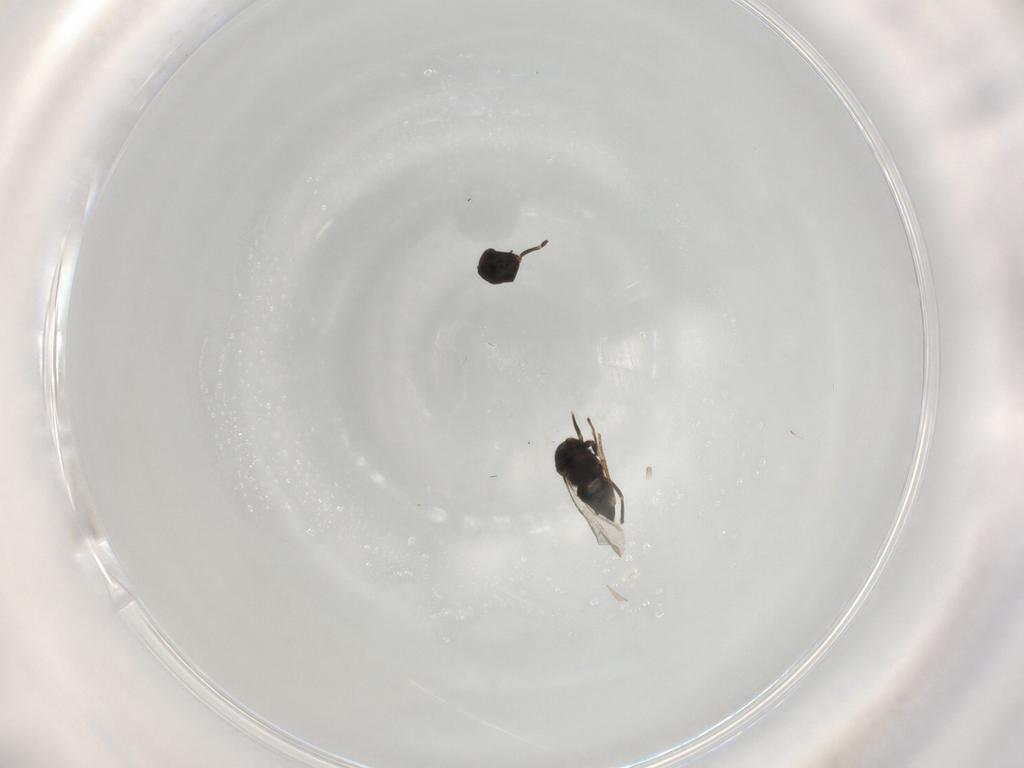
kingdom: Animalia
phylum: Arthropoda
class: Insecta
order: Hymenoptera
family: Encyrtidae
